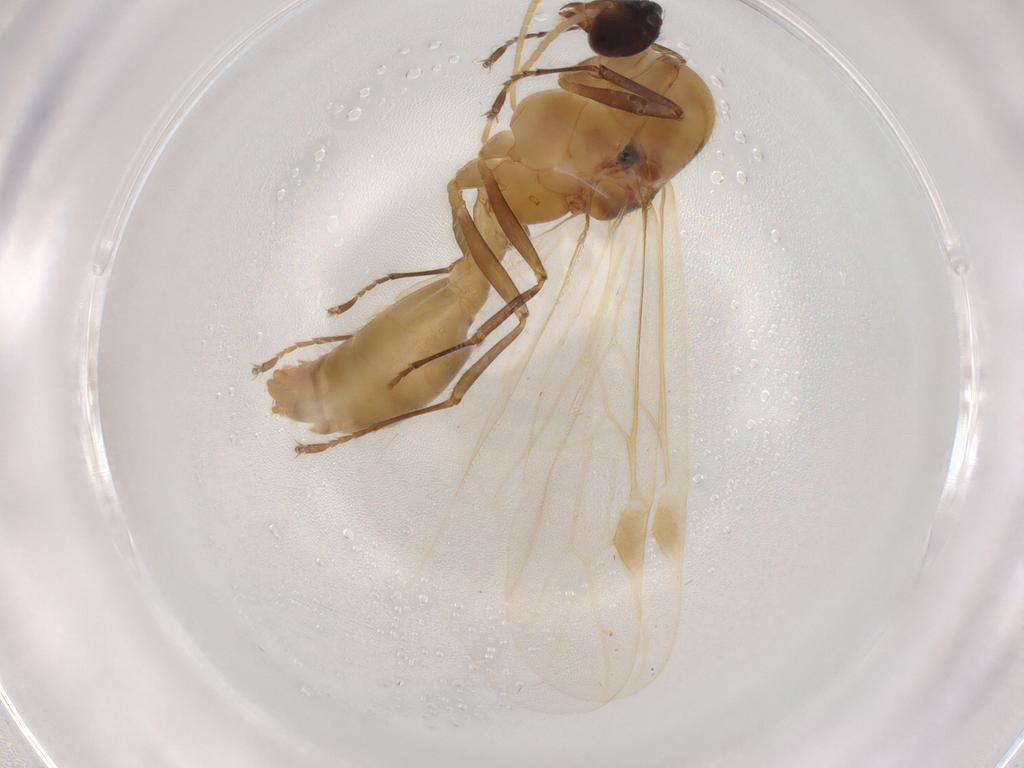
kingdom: Animalia
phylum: Arthropoda
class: Insecta
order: Hymenoptera
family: Formicidae
